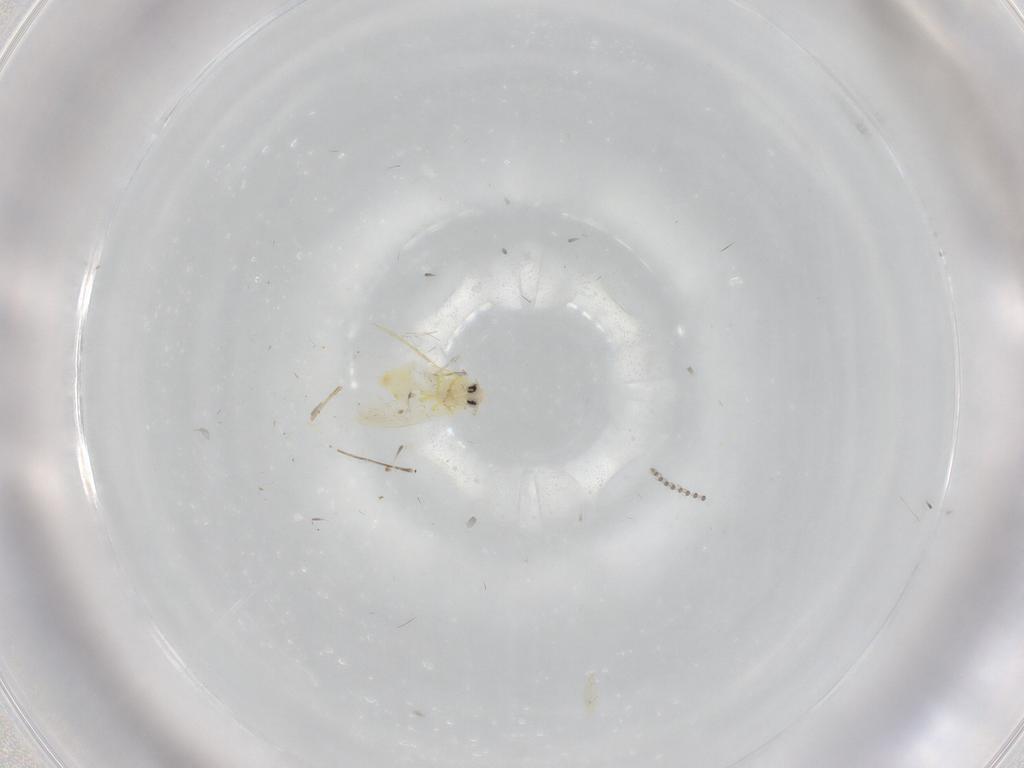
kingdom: Animalia
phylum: Arthropoda
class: Insecta
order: Hemiptera
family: Aleyrodidae
